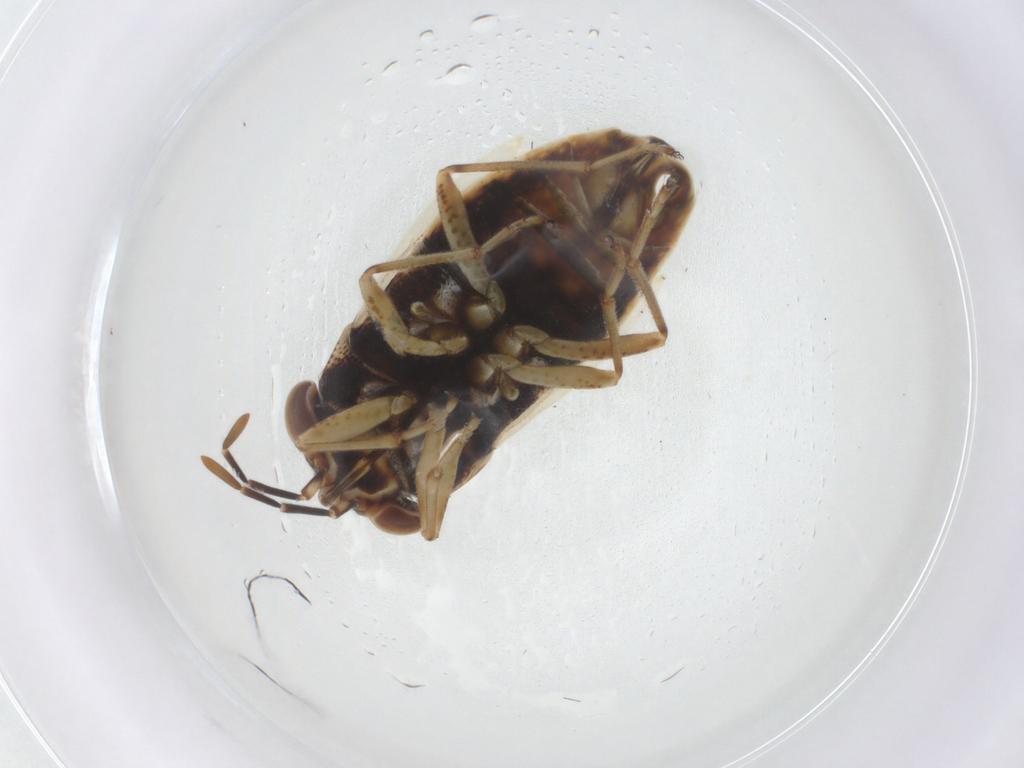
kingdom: Animalia
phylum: Arthropoda
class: Insecta
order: Hemiptera
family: Geocoridae
